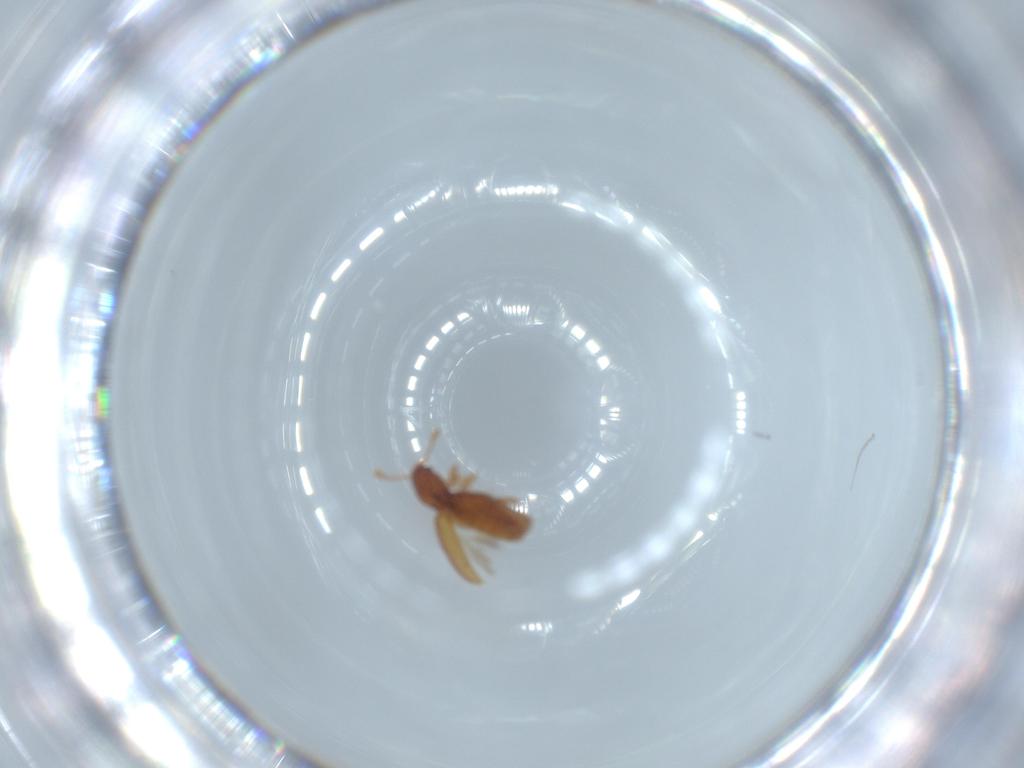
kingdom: Animalia
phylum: Arthropoda
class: Insecta
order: Coleoptera
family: Endomychidae
